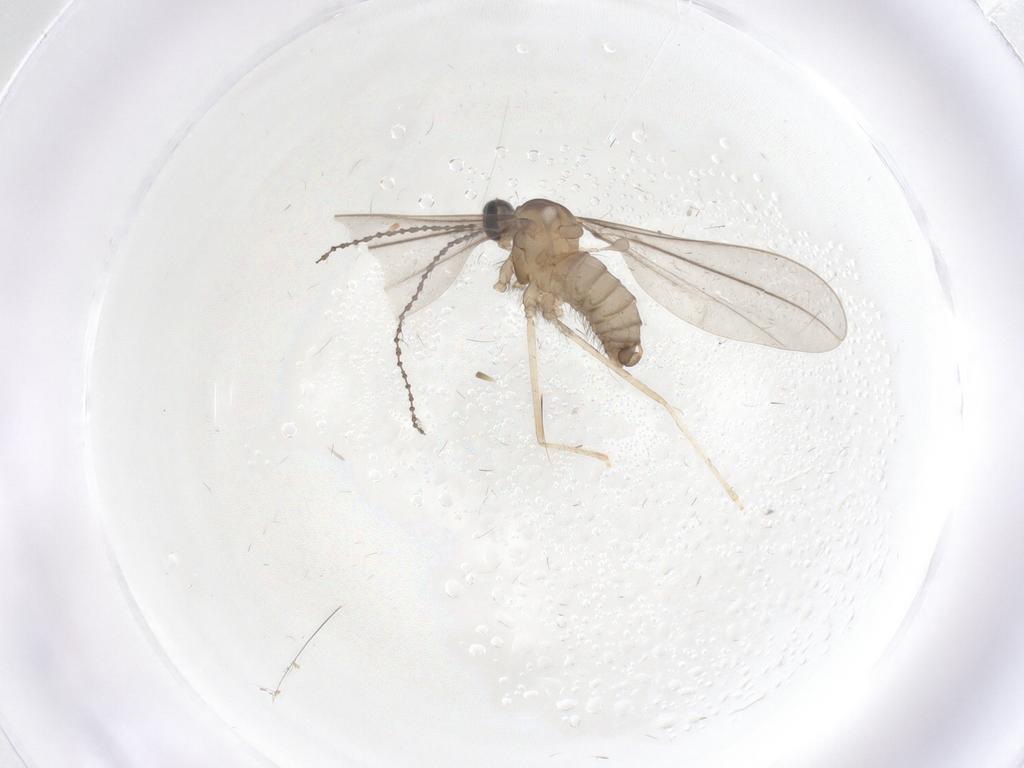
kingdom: Animalia
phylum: Arthropoda
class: Insecta
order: Diptera
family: Cecidomyiidae
